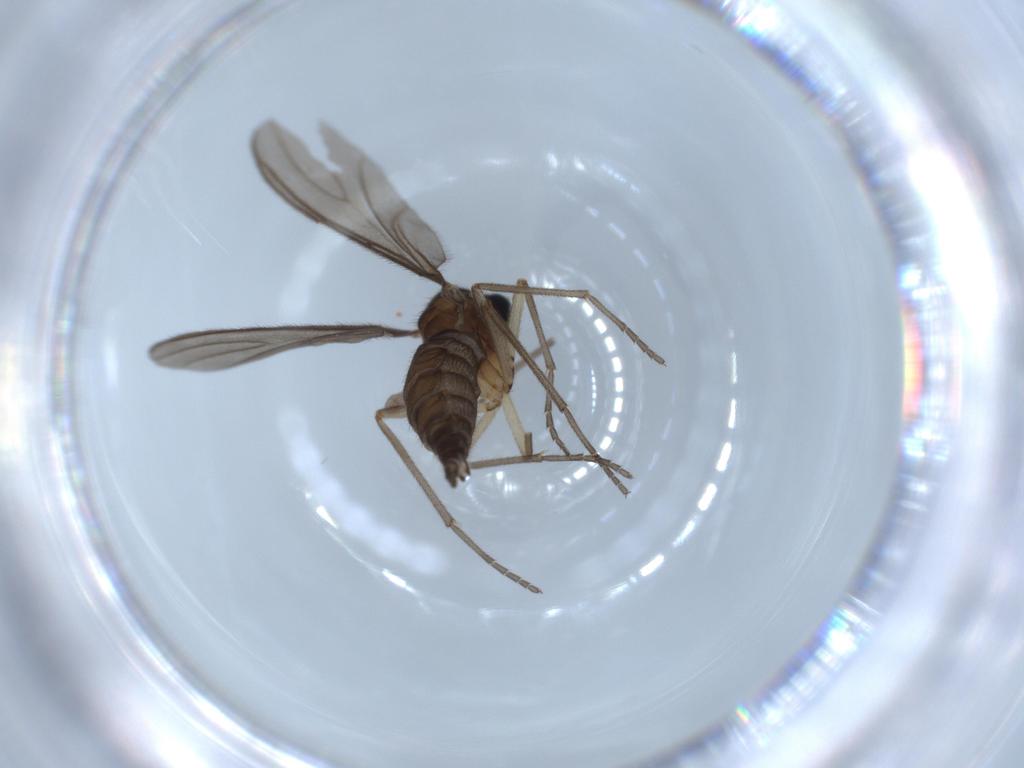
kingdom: Animalia
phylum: Arthropoda
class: Insecta
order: Diptera
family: Sciaridae
